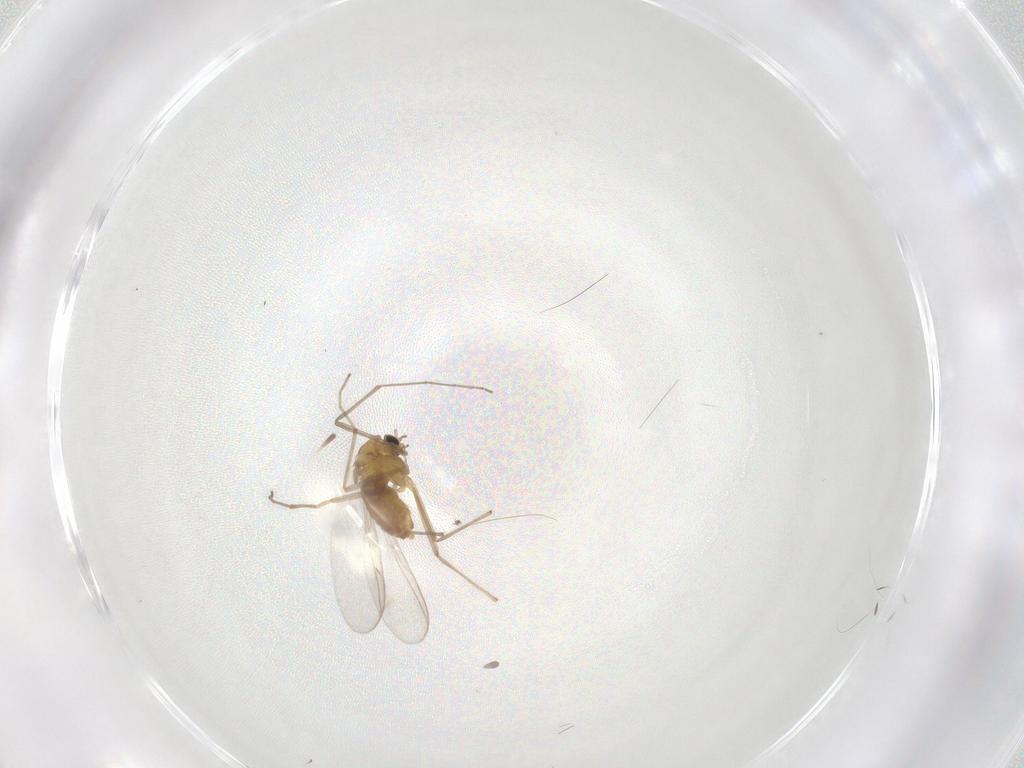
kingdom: Animalia
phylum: Arthropoda
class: Insecta
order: Diptera
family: Chironomidae
